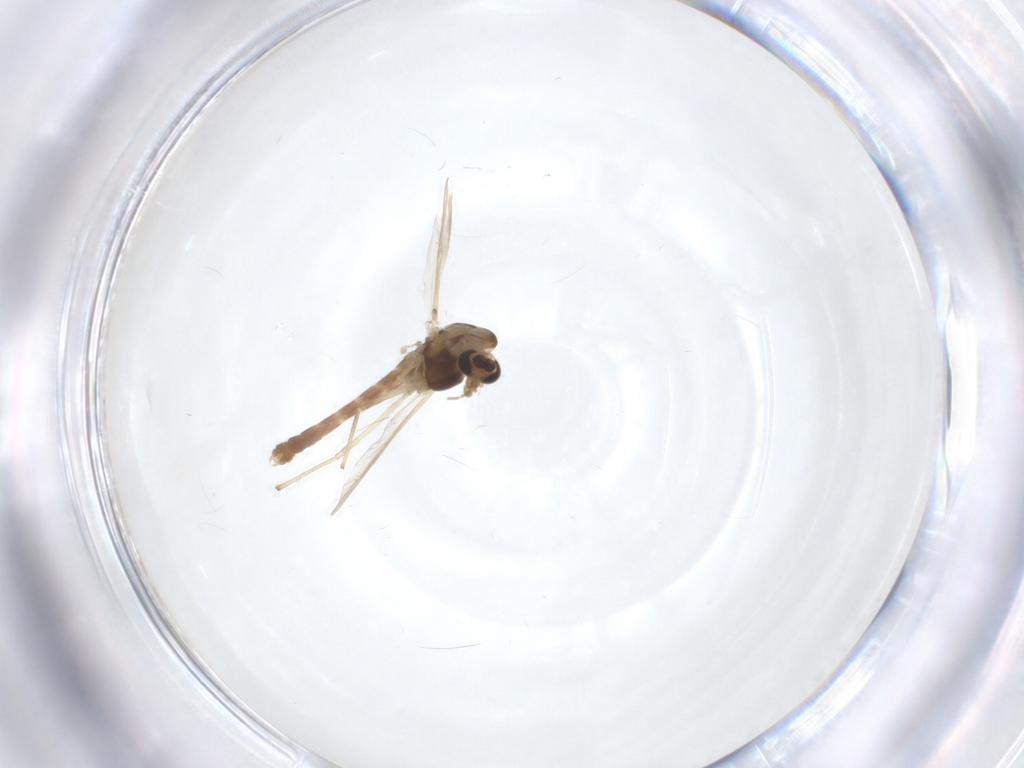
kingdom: Animalia
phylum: Arthropoda
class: Insecta
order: Diptera
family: Chironomidae
